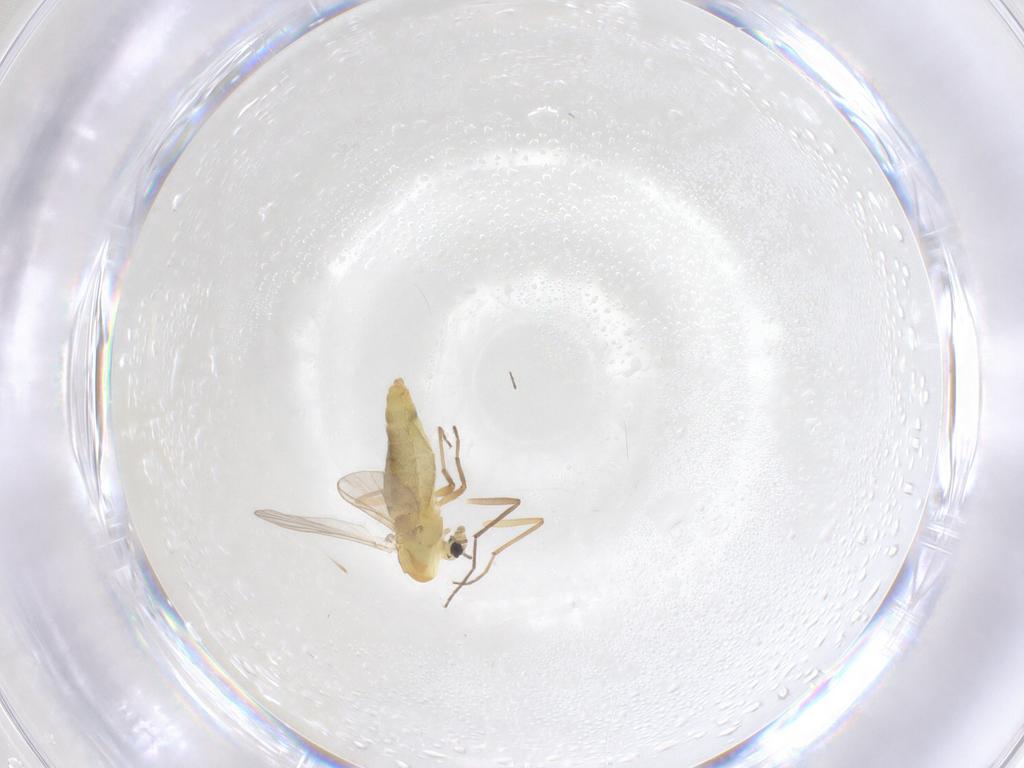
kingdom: Animalia
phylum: Arthropoda
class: Insecta
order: Diptera
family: Chironomidae
